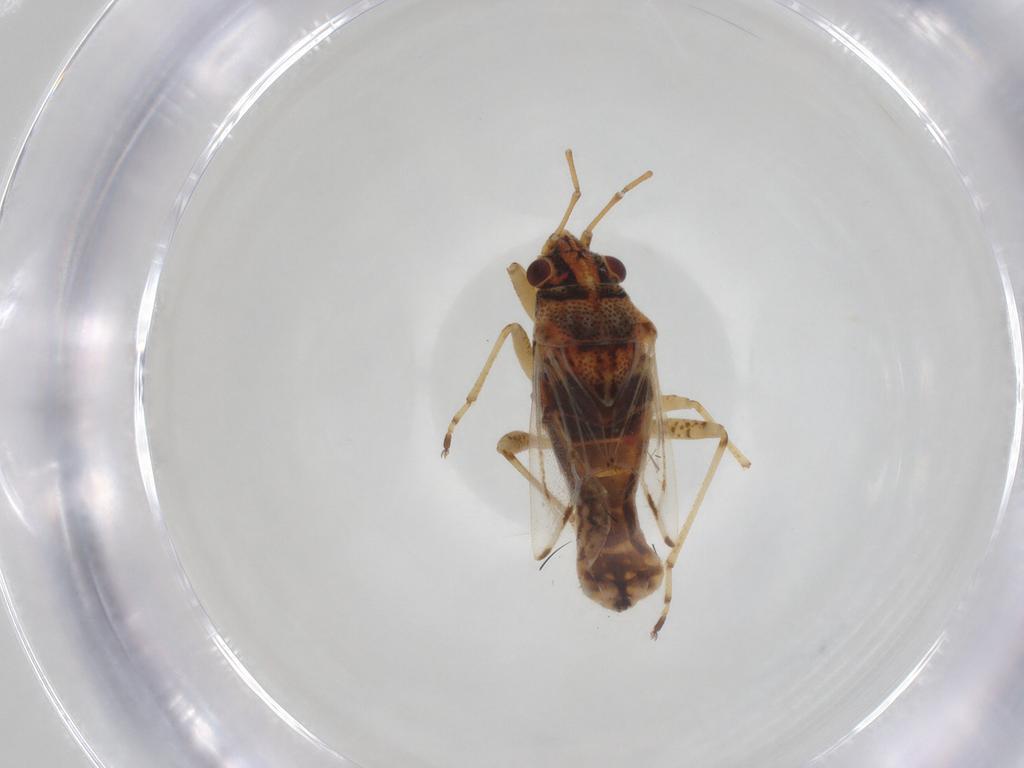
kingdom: Animalia
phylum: Arthropoda
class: Insecta
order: Hemiptera
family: Lygaeidae
